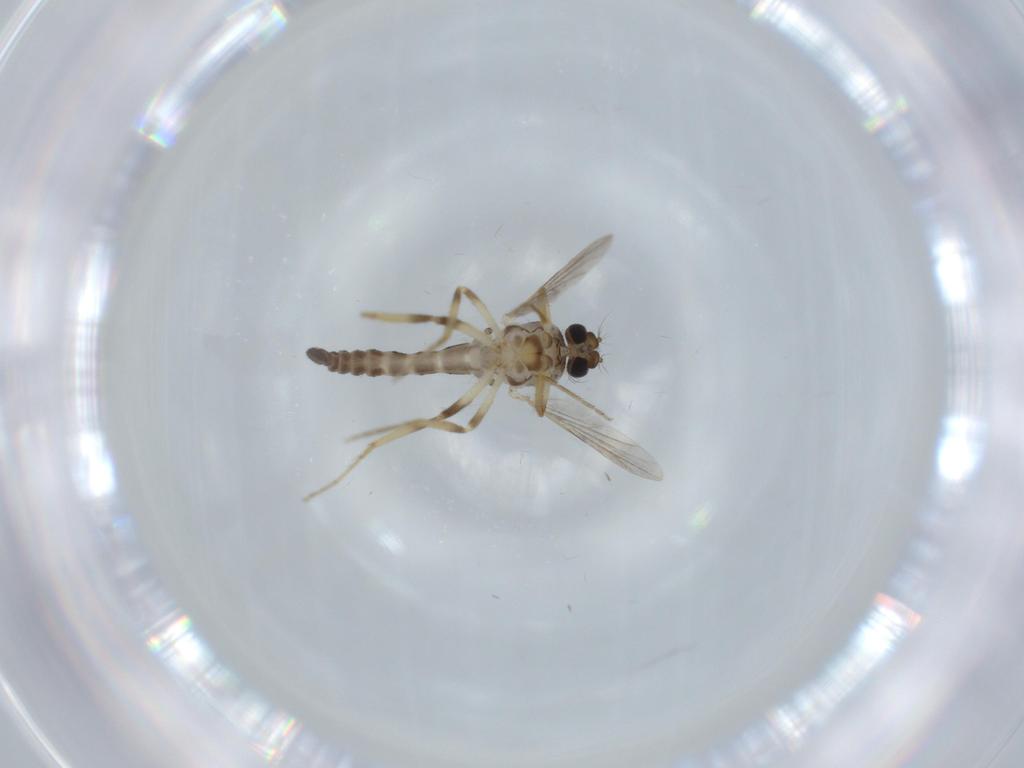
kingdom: Animalia
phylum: Arthropoda
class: Insecta
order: Diptera
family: Ceratopogonidae
